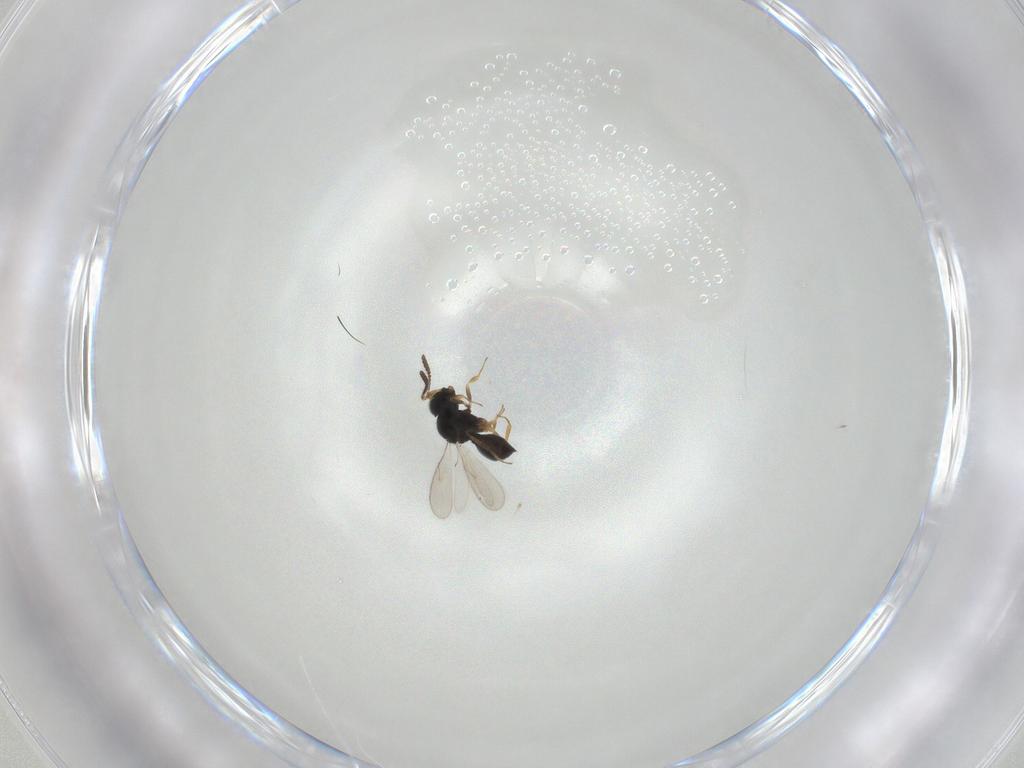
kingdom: Animalia
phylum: Arthropoda
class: Insecta
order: Hymenoptera
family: Scelionidae
